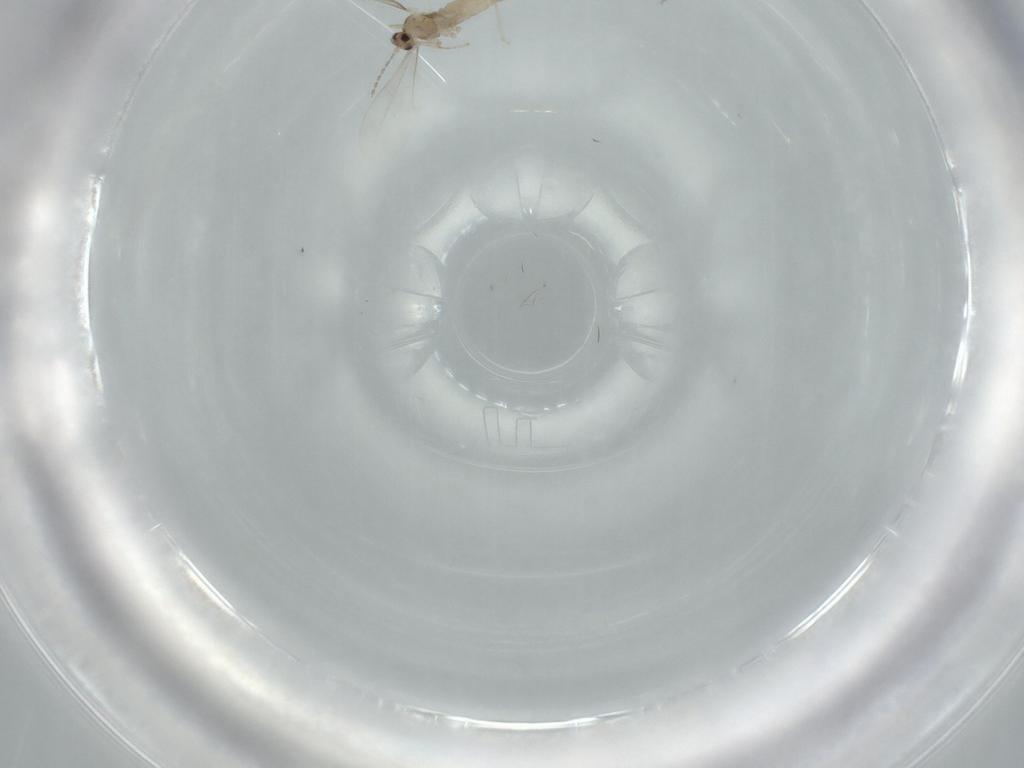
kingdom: Animalia
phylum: Arthropoda
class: Insecta
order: Diptera
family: Cecidomyiidae
